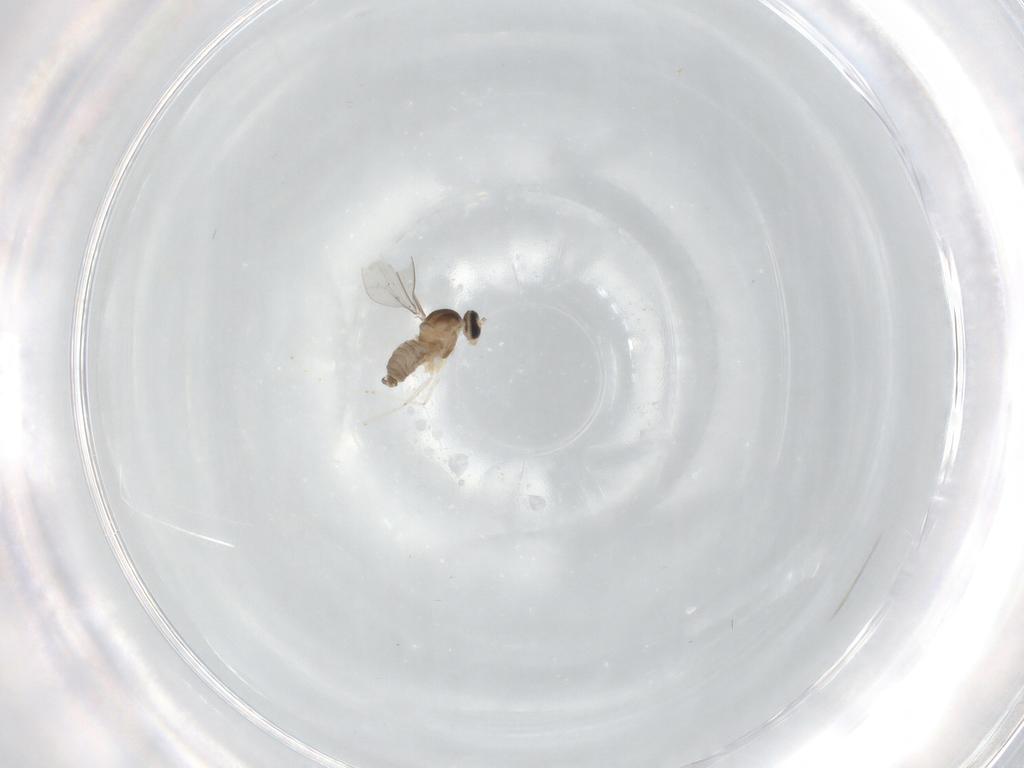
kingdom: Animalia
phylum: Arthropoda
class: Insecta
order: Diptera
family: Cecidomyiidae
